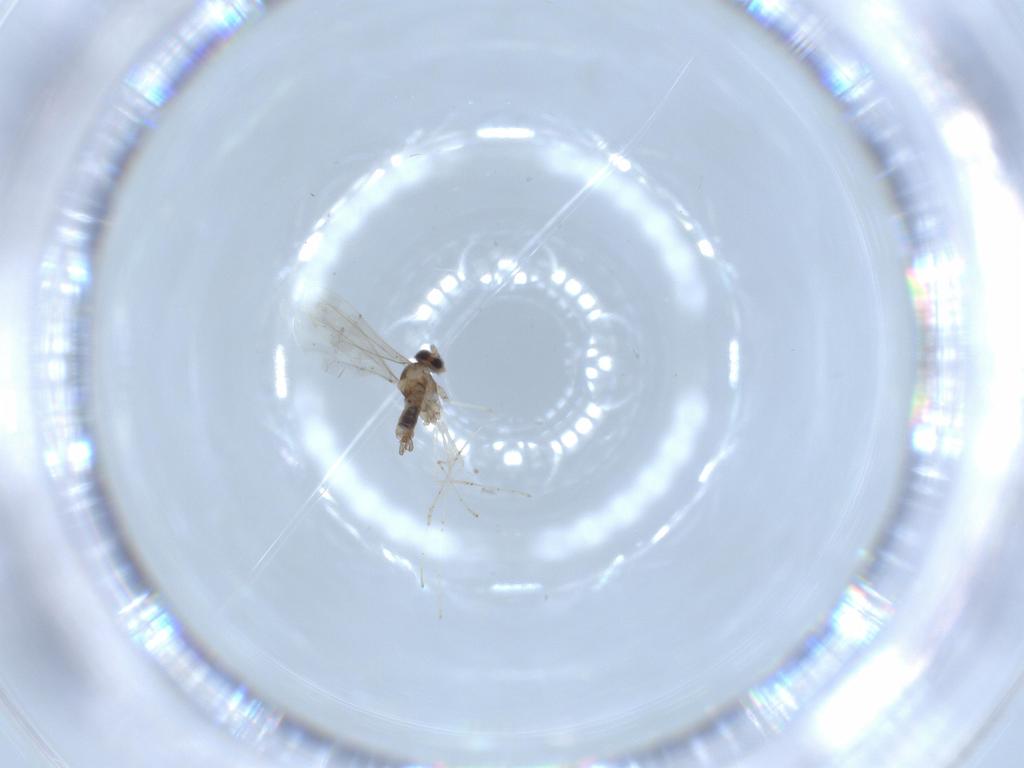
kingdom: Animalia
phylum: Arthropoda
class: Insecta
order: Diptera
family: Cecidomyiidae
